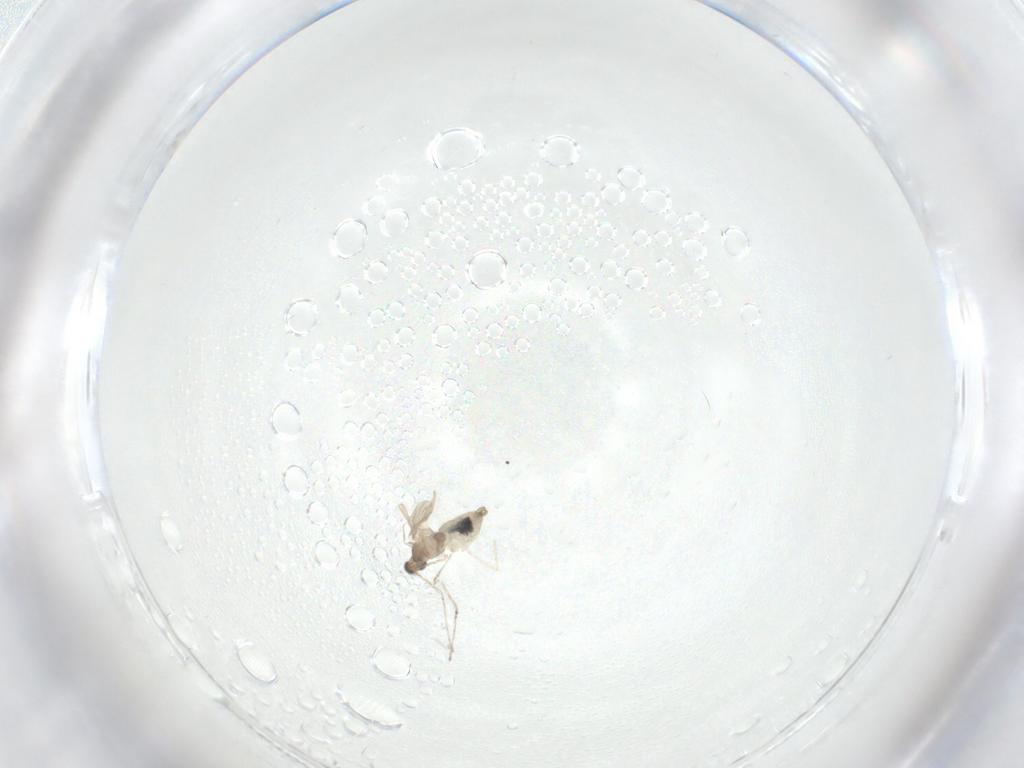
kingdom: Animalia
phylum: Arthropoda
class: Insecta
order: Diptera
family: Cecidomyiidae
